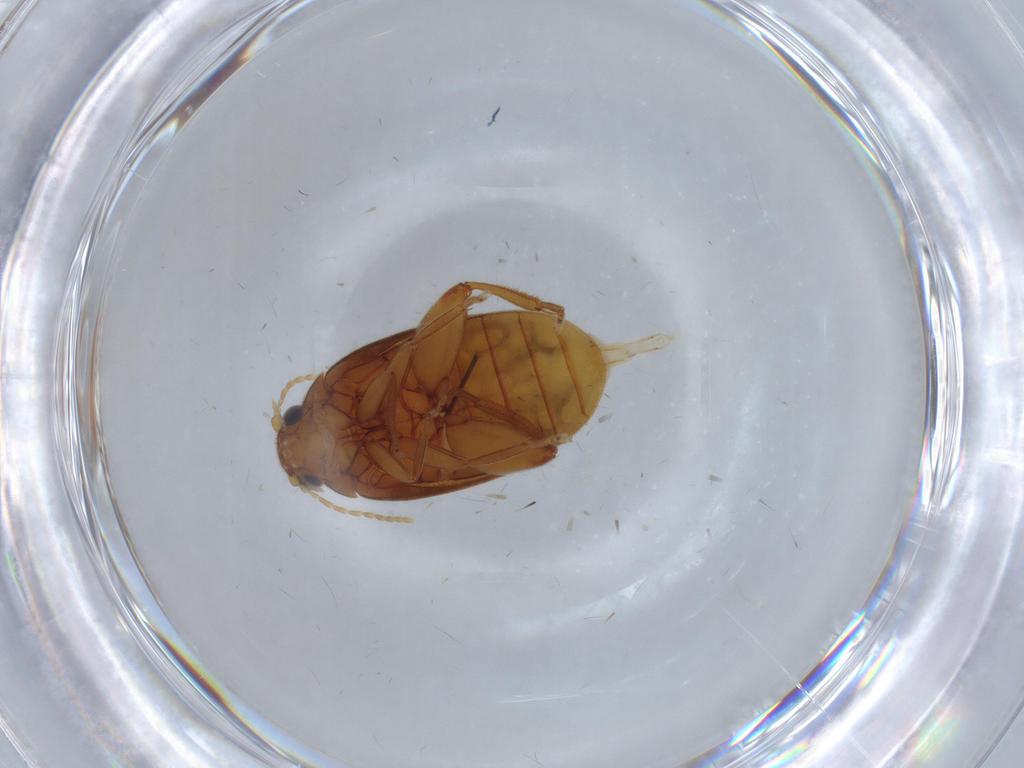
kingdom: Animalia
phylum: Arthropoda
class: Insecta
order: Coleoptera
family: Scirtidae
